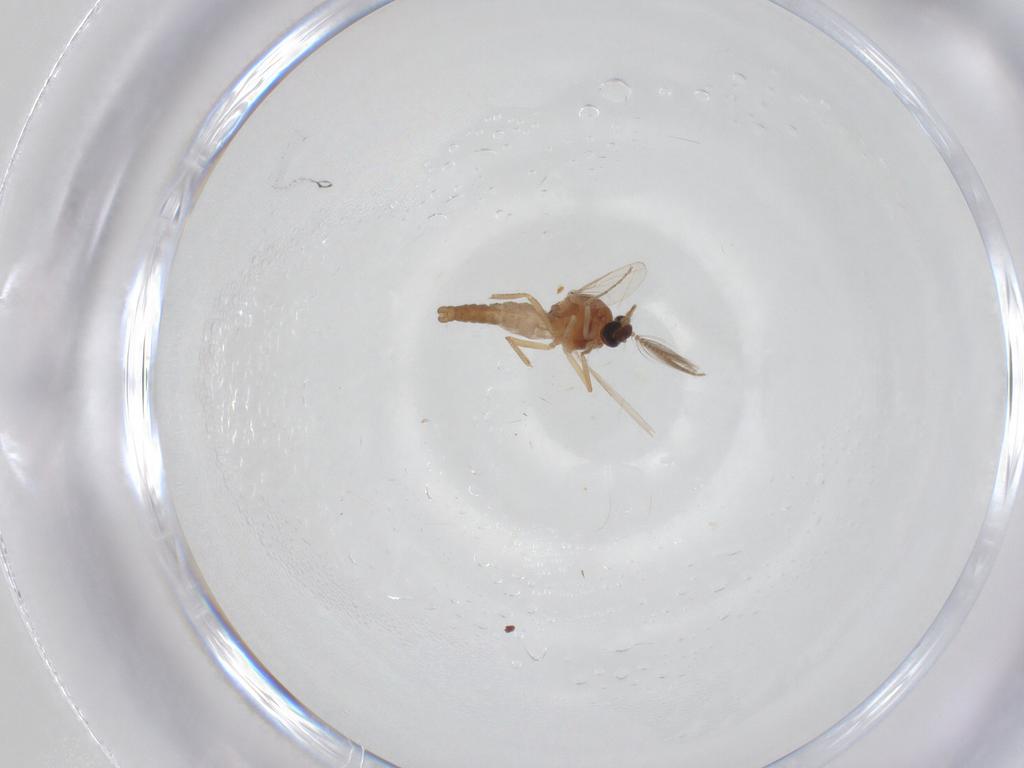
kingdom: Animalia
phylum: Arthropoda
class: Insecta
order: Diptera
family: Ceratopogonidae
